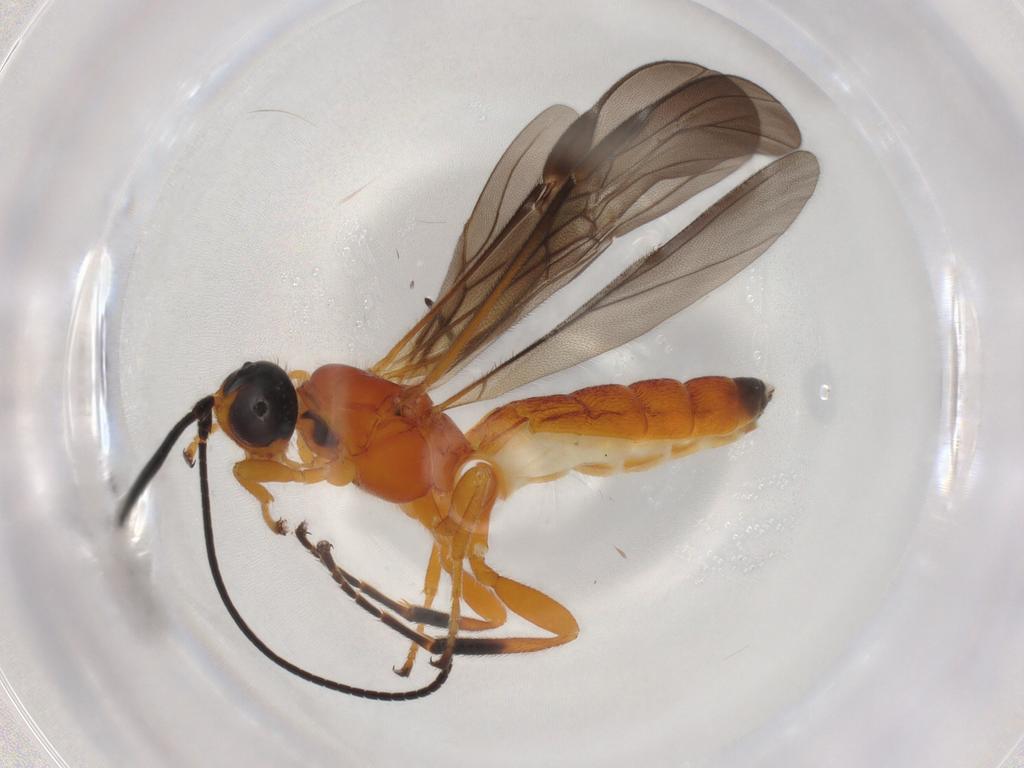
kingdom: Animalia
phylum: Arthropoda
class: Insecta
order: Hymenoptera
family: Braconidae
